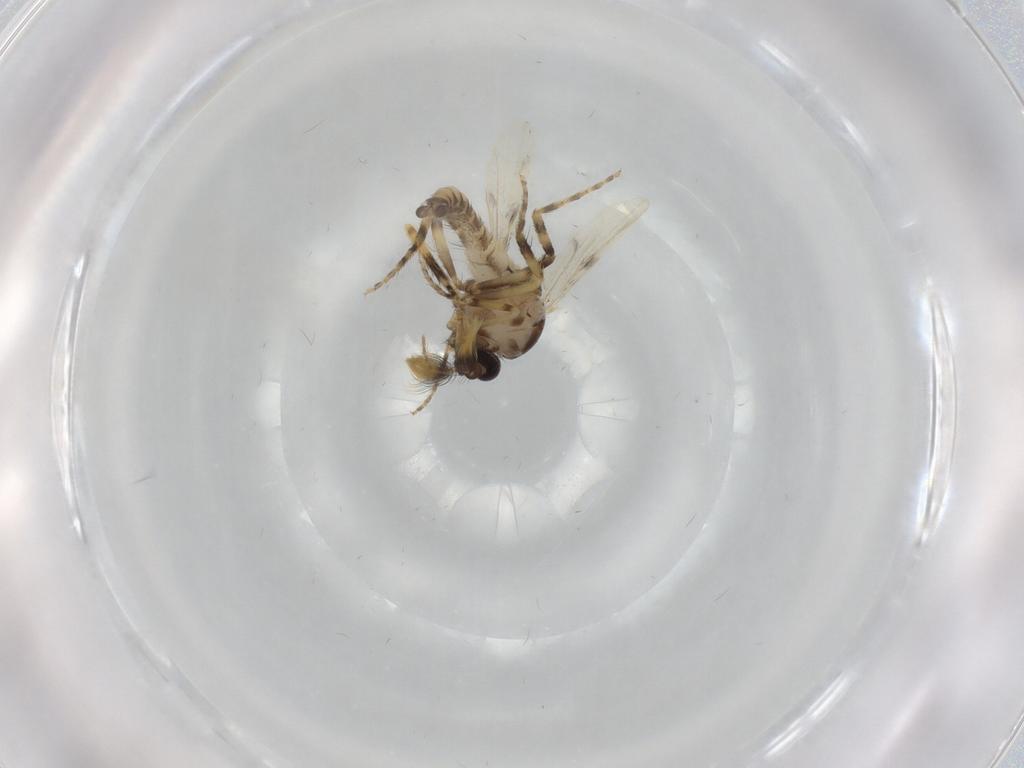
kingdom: Animalia
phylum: Arthropoda
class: Insecta
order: Diptera
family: Ceratopogonidae
